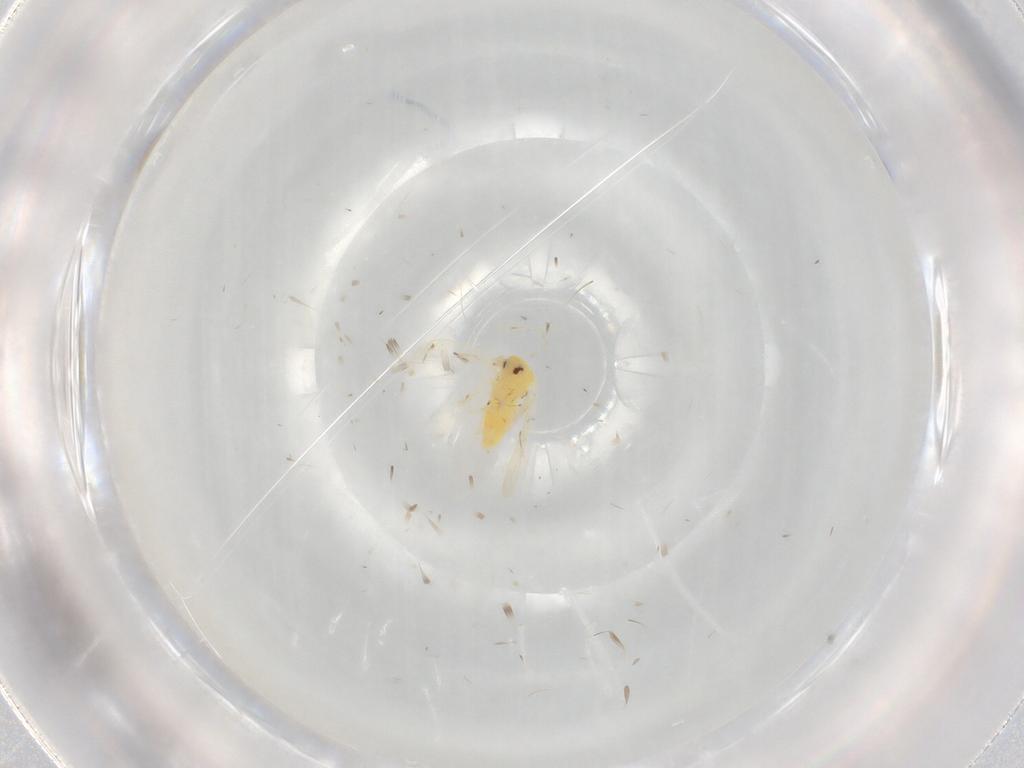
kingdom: Animalia
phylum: Arthropoda
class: Insecta
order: Hemiptera
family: Aleyrodidae
